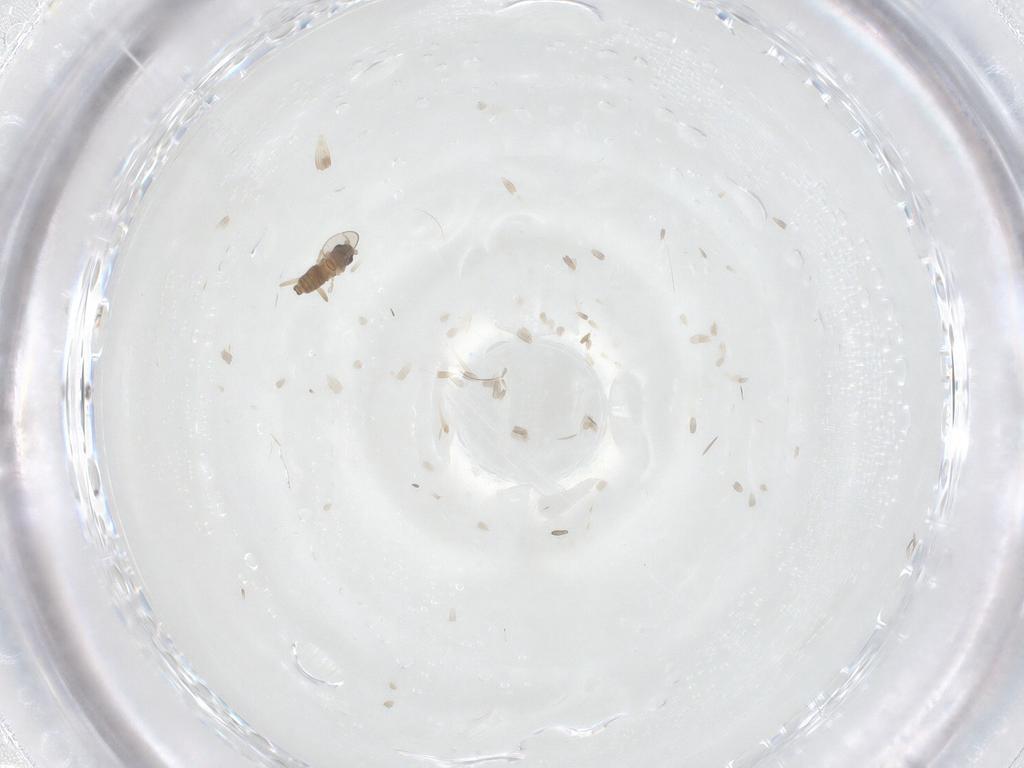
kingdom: Animalia
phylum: Arthropoda
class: Insecta
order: Diptera
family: Cecidomyiidae
